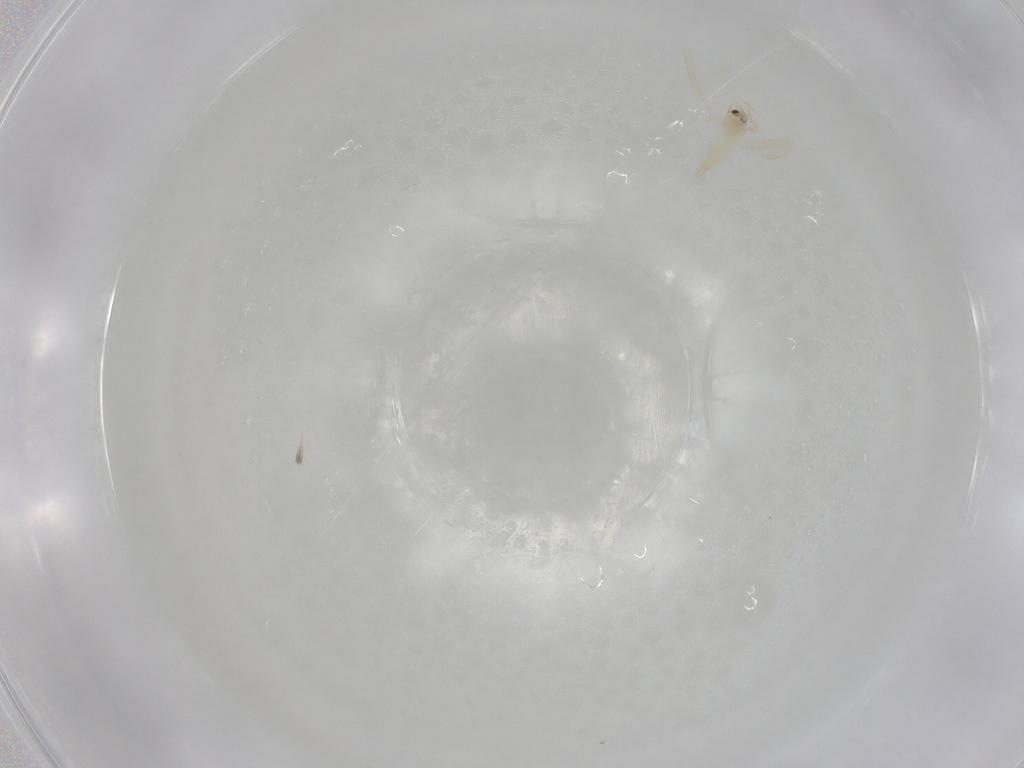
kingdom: Animalia
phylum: Arthropoda
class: Insecta
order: Hemiptera
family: Aleyrodidae
